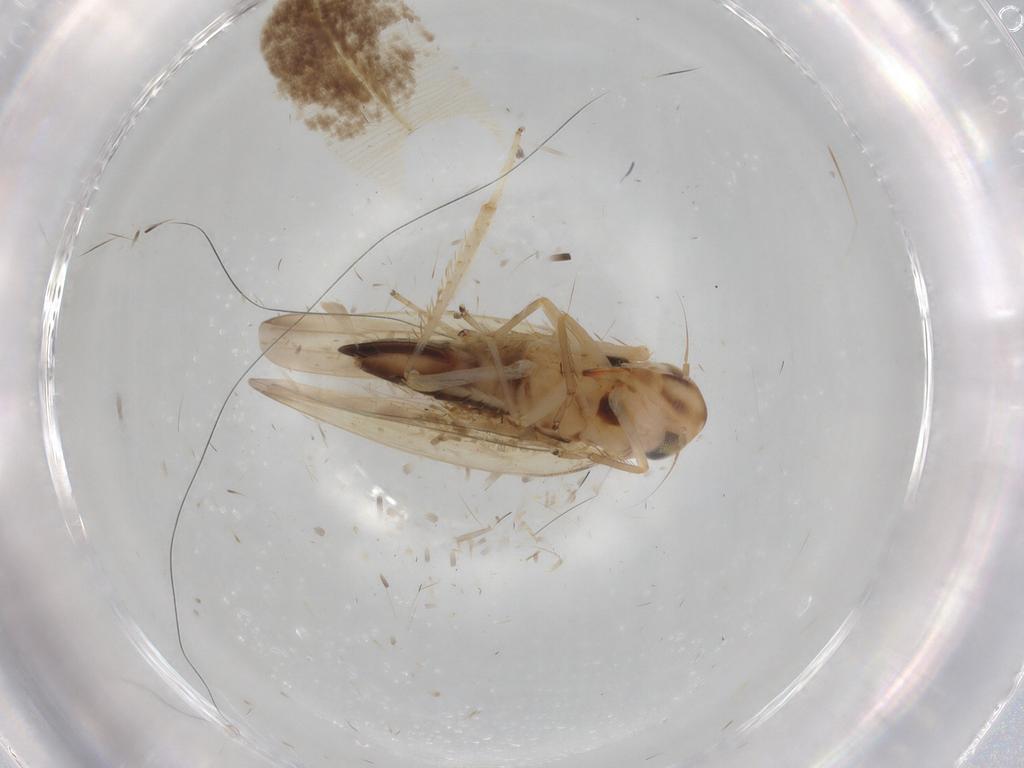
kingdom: Animalia
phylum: Arthropoda
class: Insecta
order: Hemiptera
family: Cicadellidae
